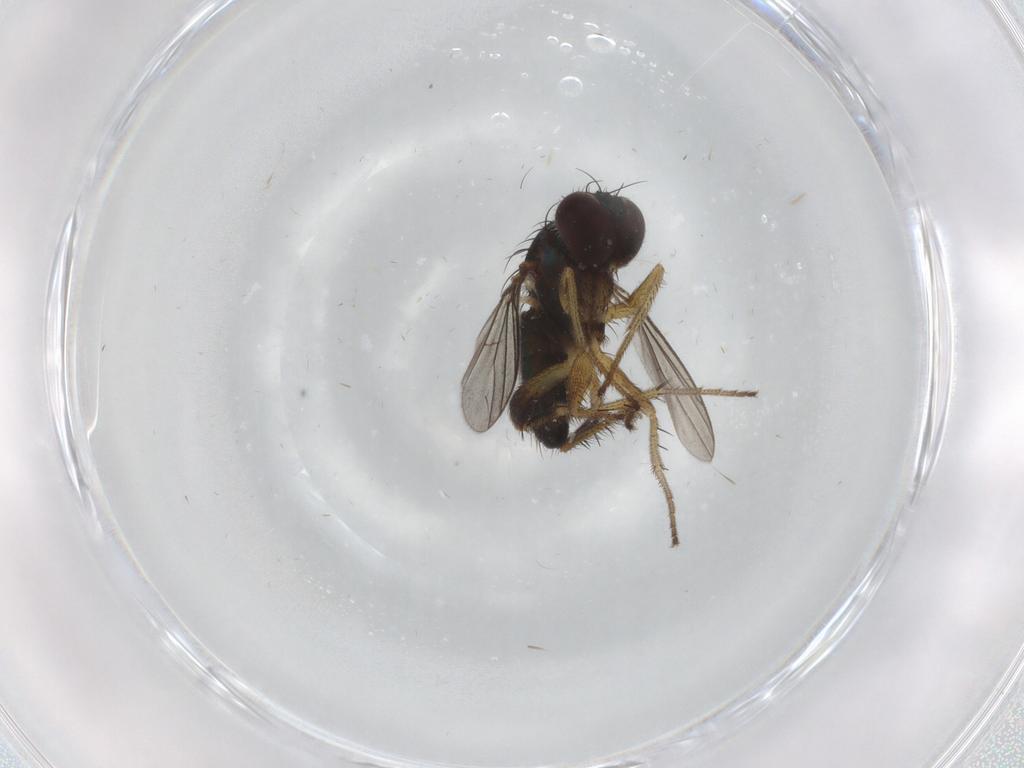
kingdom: Animalia
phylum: Arthropoda
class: Insecta
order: Diptera
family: Dolichopodidae
